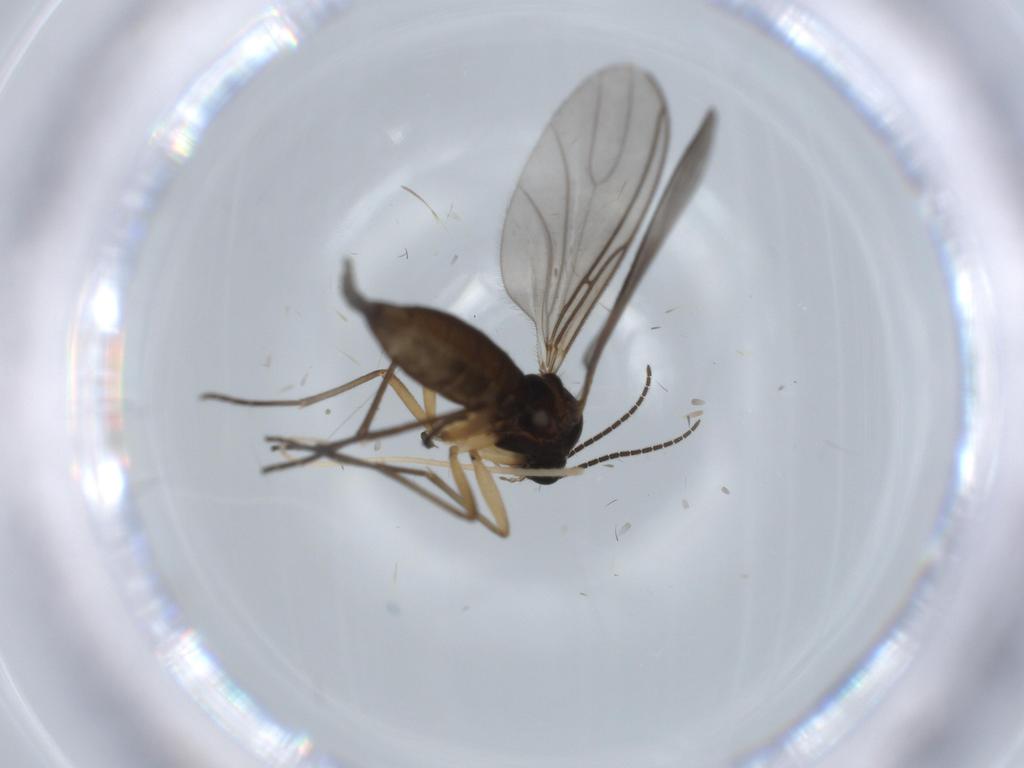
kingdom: Animalia
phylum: Arthropoda
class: Insecta
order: Diptera
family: Sciaridae
